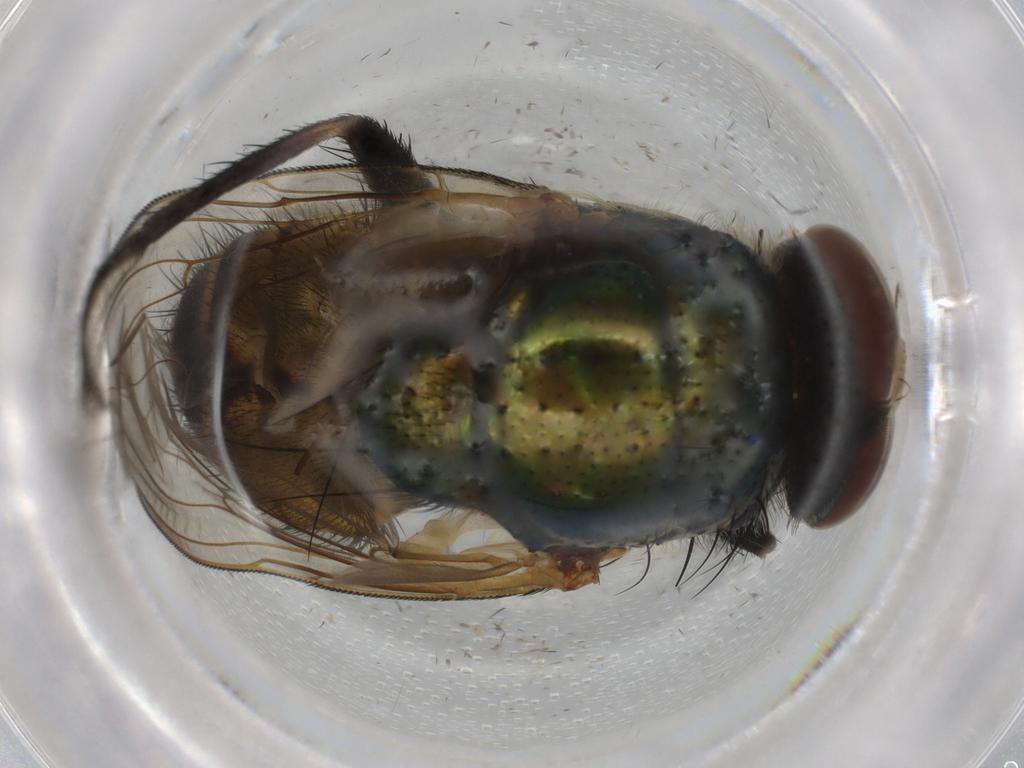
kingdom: Animalia
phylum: Arthropoda
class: Insecta
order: Diptera
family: Calliphoridae
